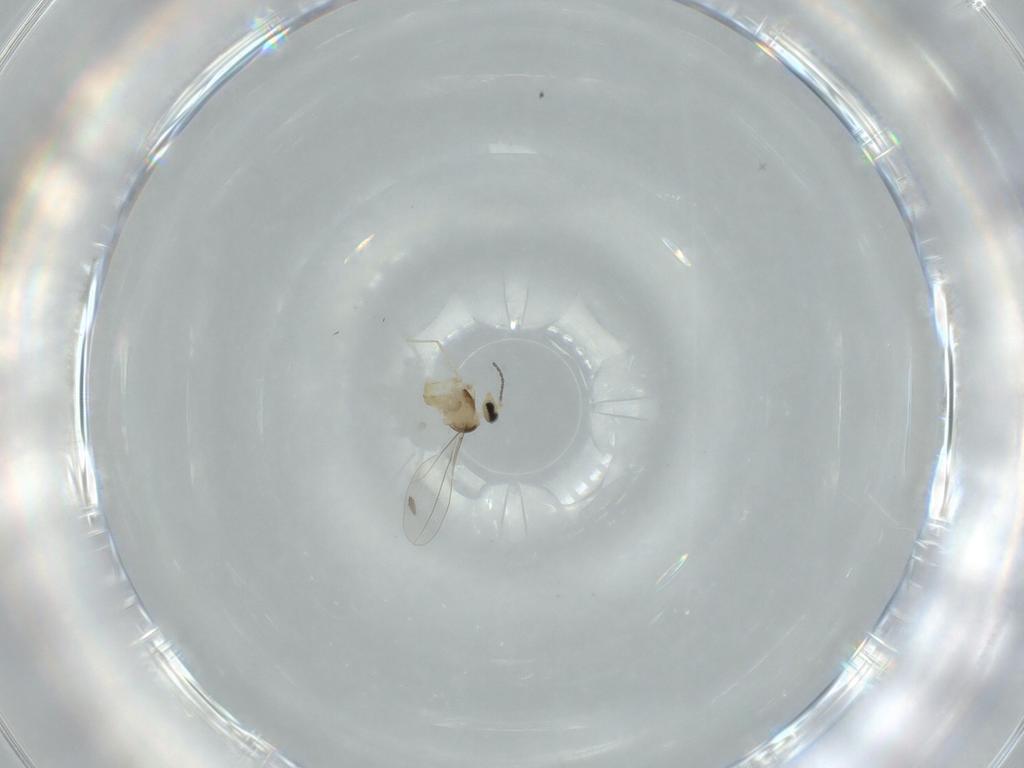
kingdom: Animalia
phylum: Arthropoda
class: Insecta
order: Diptera
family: Cecidomyiidae
